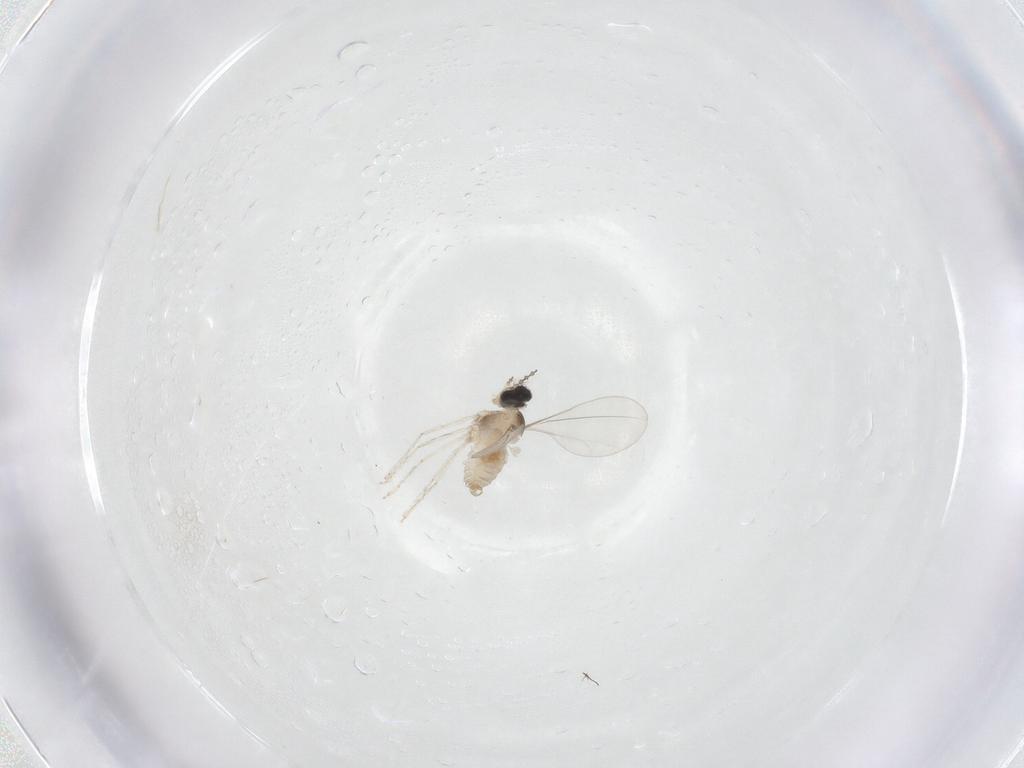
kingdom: Animalia
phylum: Arthropoda
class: Insecta
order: Diptera
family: Cecidomyiidae
